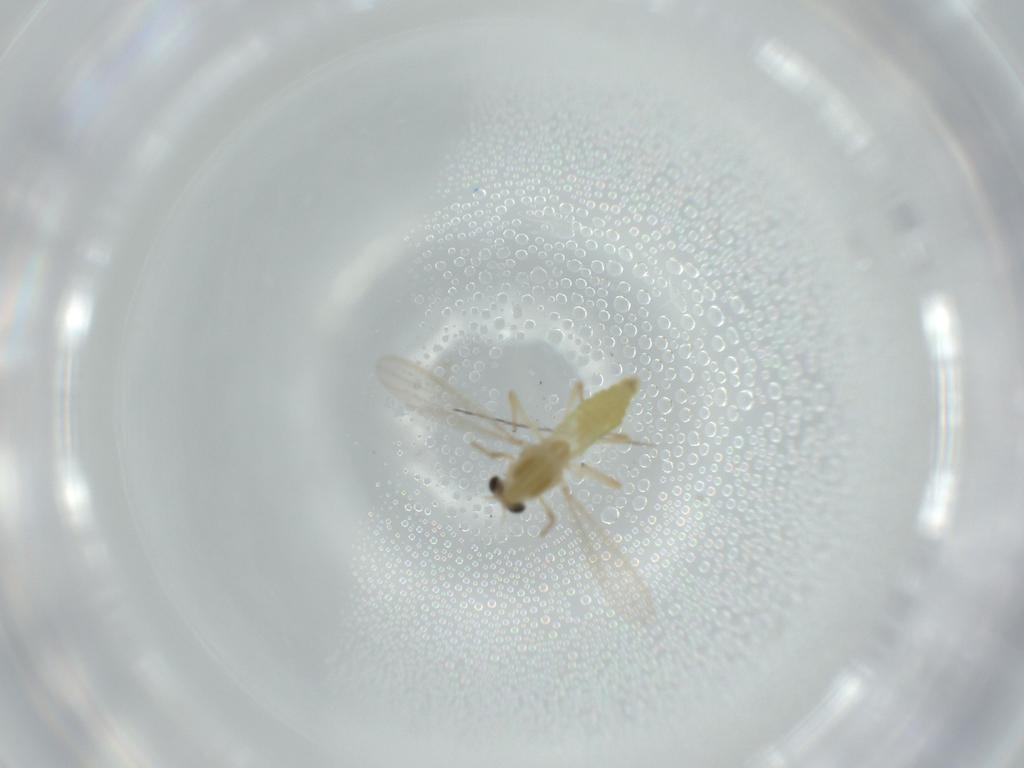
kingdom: Animalia
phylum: Arthropoda
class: Insecta
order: Diptera
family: Chironomidae
